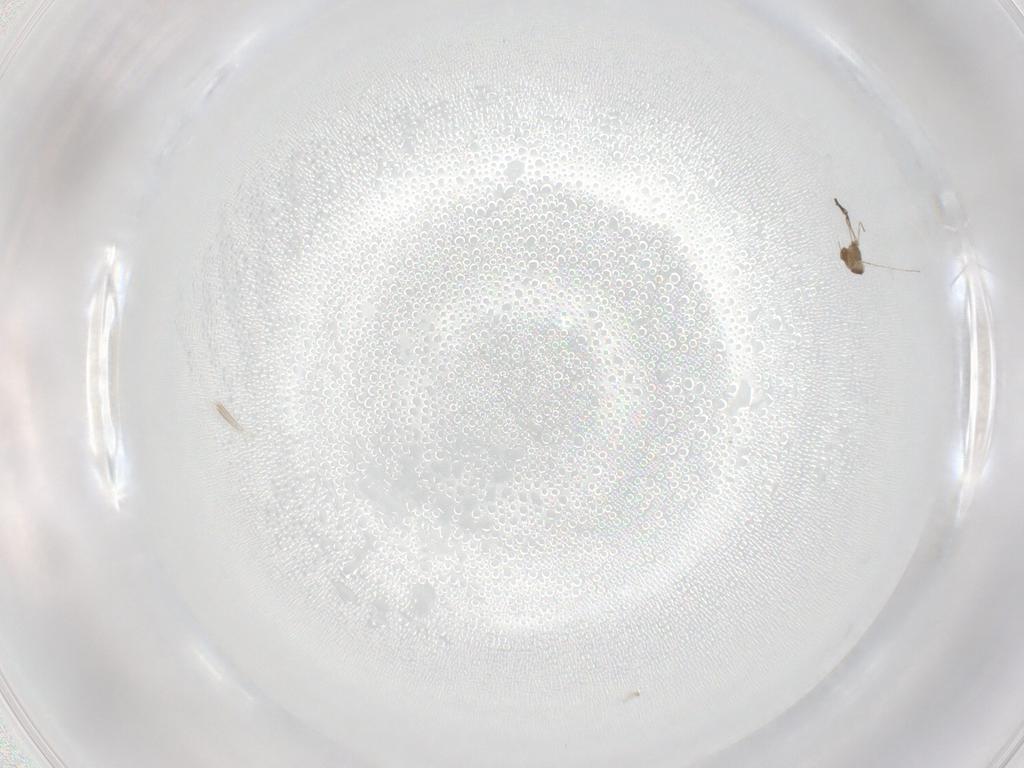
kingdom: Animalia
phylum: Arthropoda
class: Insecta
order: Diptera
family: Cecidomyiidae
